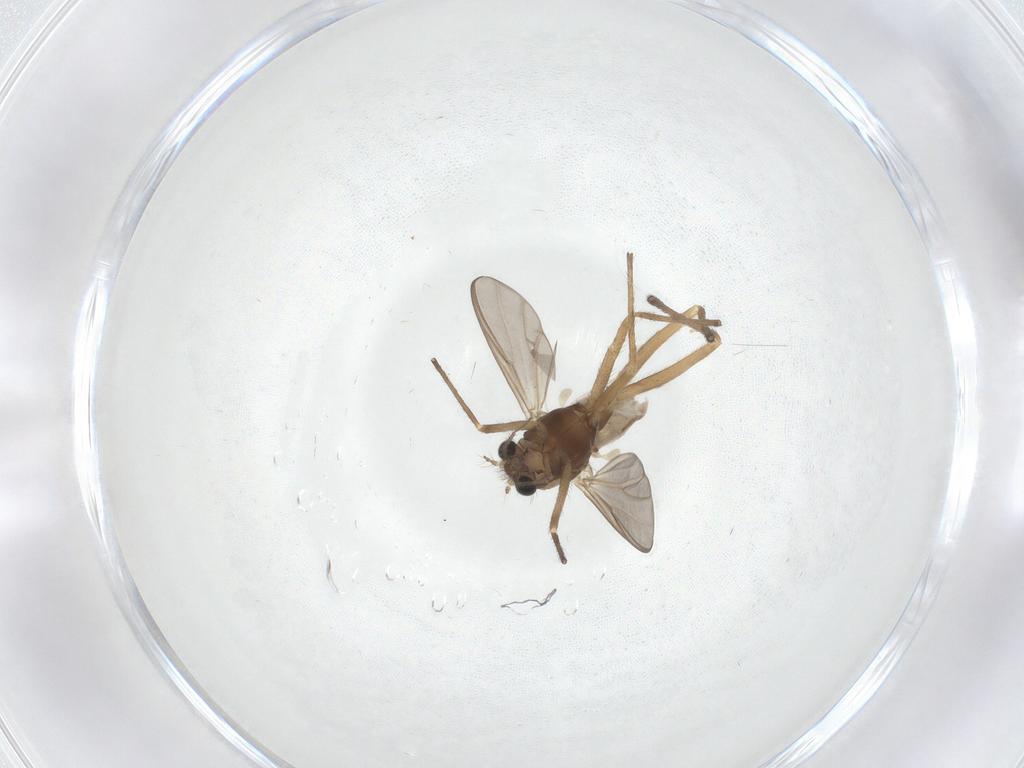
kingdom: Animalia
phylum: Arthropoda
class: Insecta
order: Diptera
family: Chironomidae
